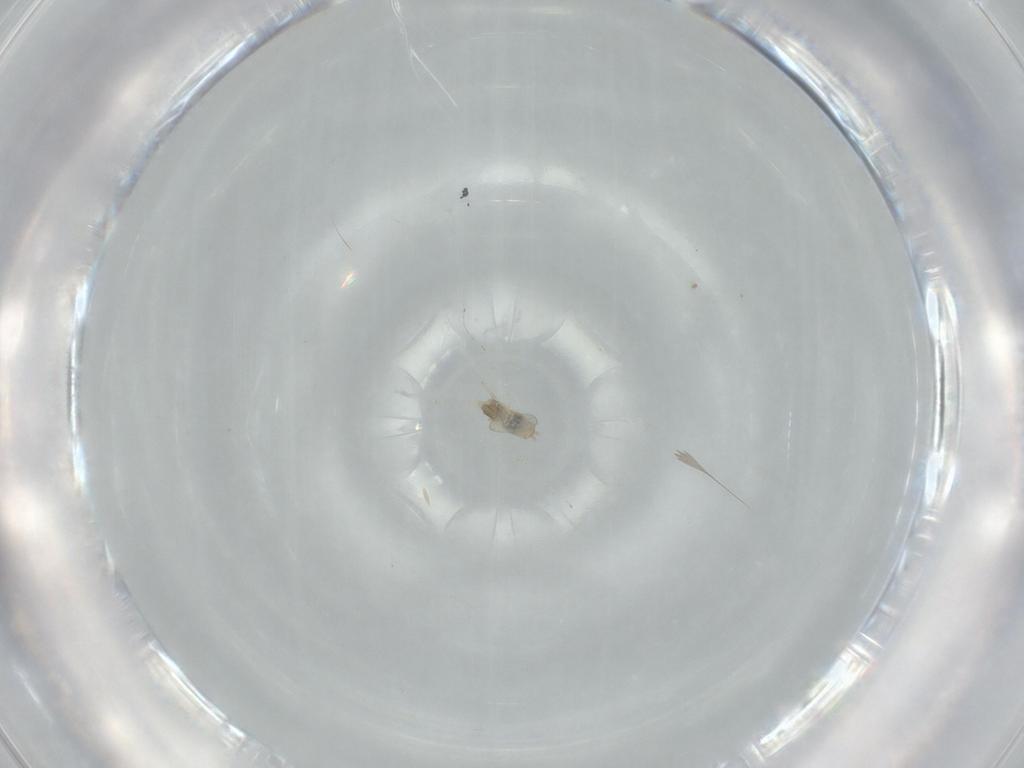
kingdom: Animalia
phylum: Arthropoda
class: Insecta
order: Diptera
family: Cecidomyiidae
